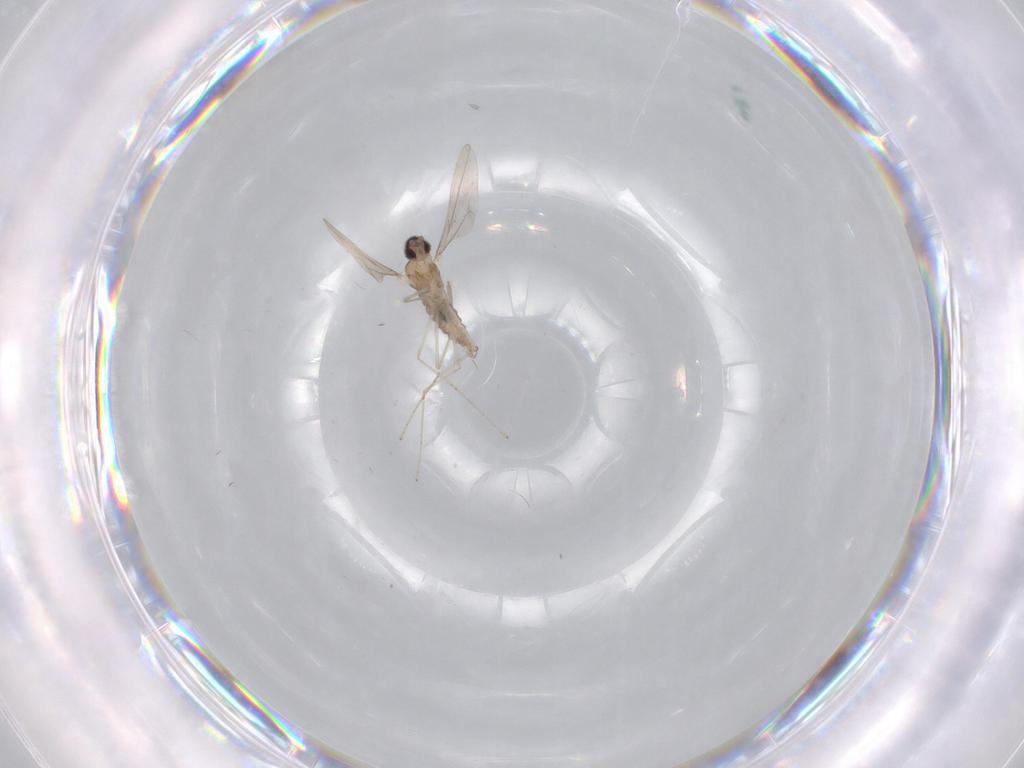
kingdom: Animalia
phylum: Arthropoda
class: Insecta
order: Diptera
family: Cecidomyiidae
